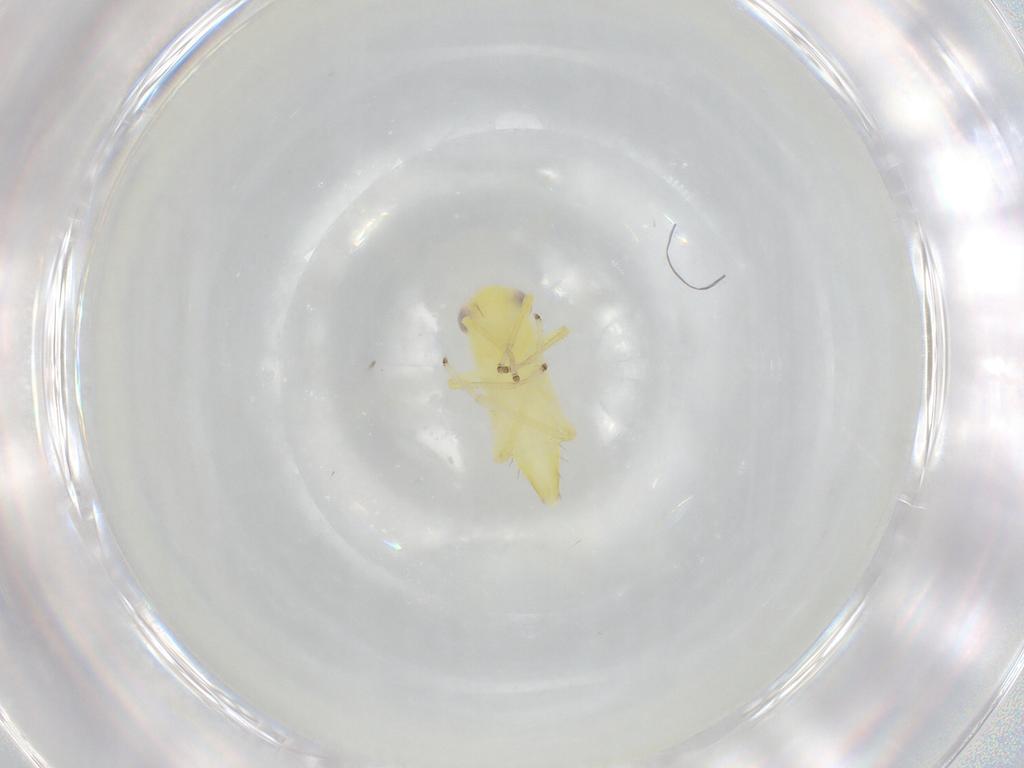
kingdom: Animalia
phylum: Arthropoda
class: Insecta
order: Hemiptera
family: Cicadellidae
